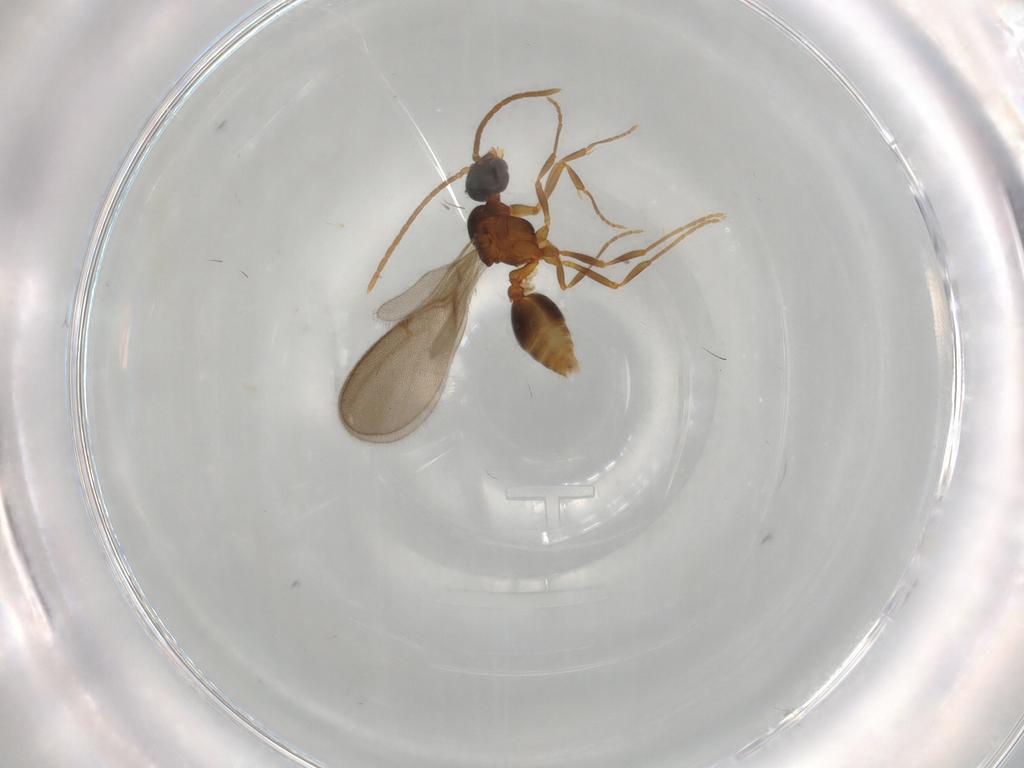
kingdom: Animalia
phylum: Arthropoda
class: Insecta
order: Hymenoptera
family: Formicidae
